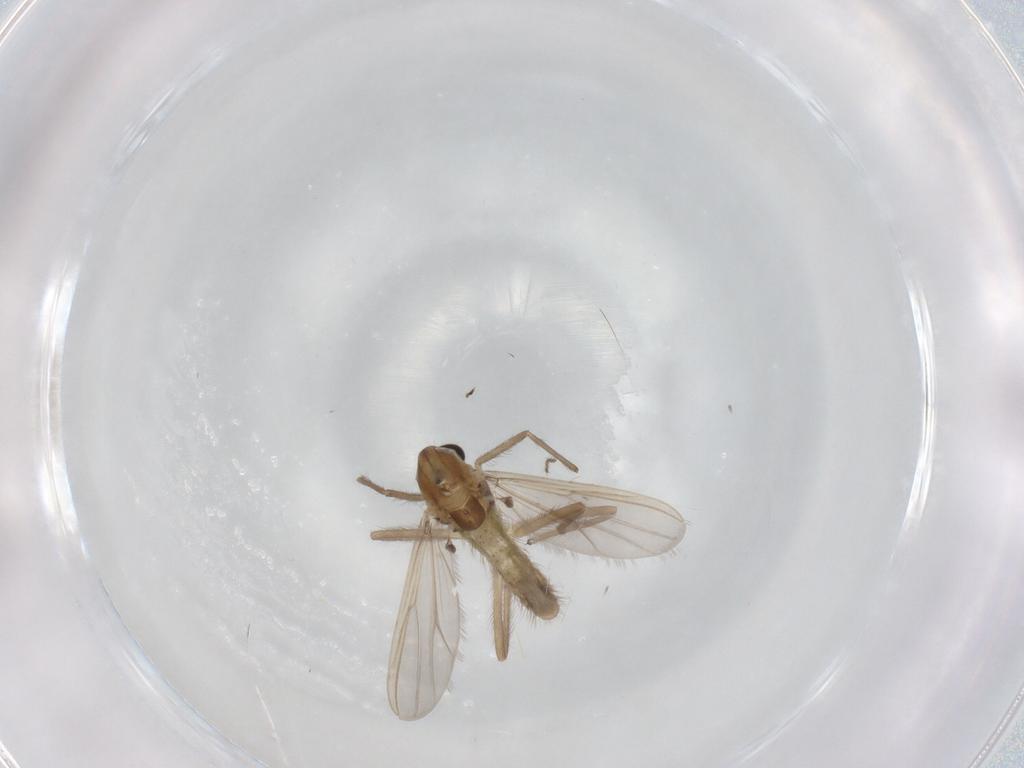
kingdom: Animalia
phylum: Arthropoda
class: Insecta
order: Diptera
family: Chironomidae
